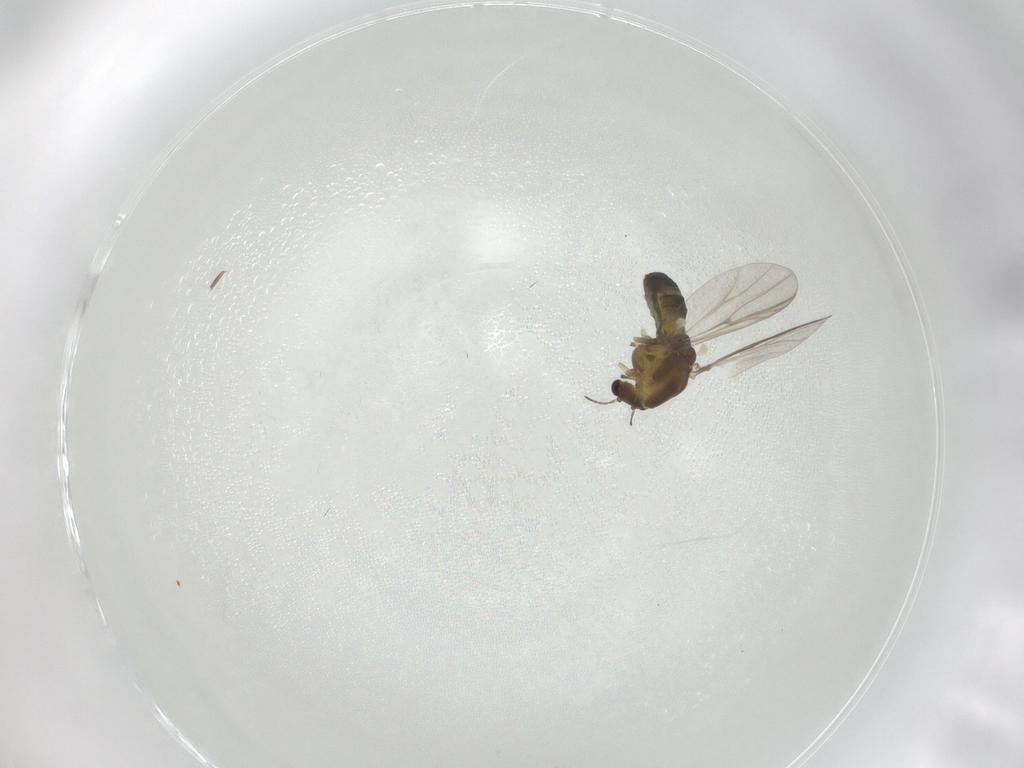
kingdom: Animalia
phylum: Arthropoda
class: Insecta
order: Diptera
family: Chironomidae
